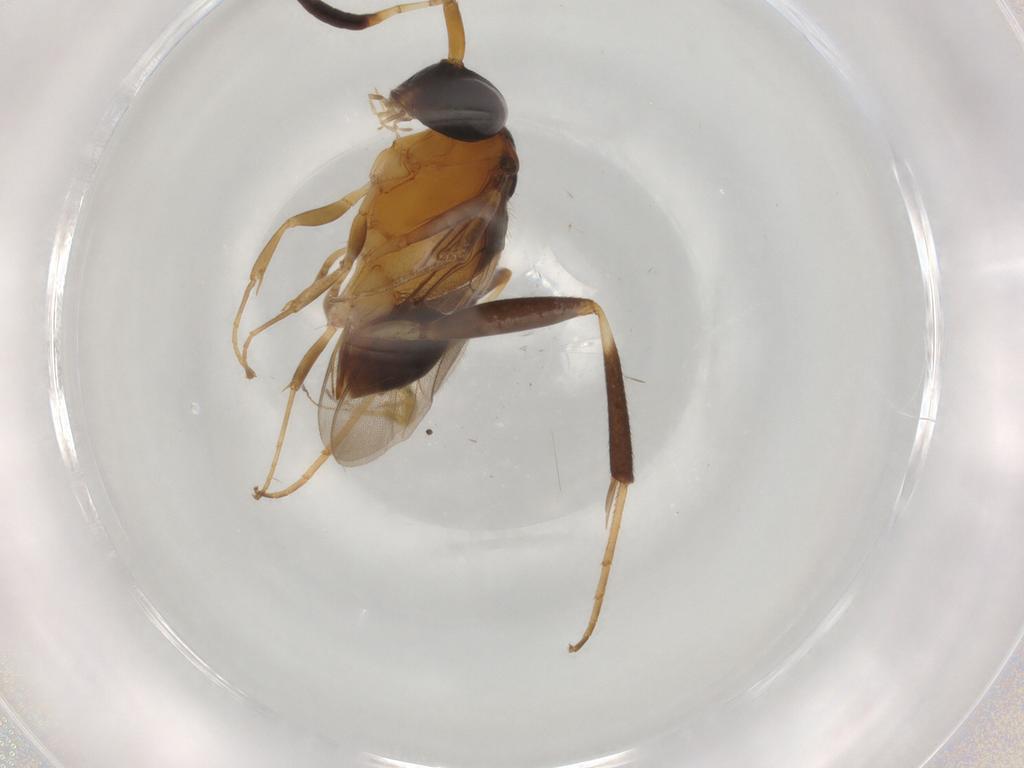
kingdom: Animalia
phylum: Arthropoda
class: Insecta
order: Hymenoptera
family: Evaniidae
